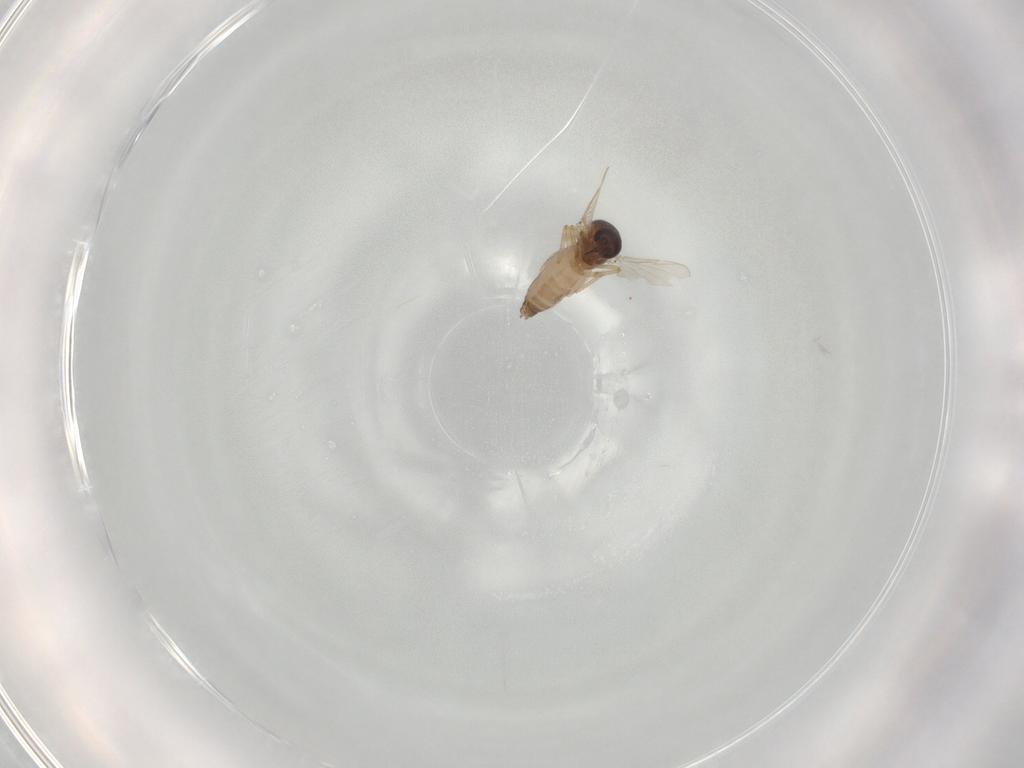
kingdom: Animalia
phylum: Arthropoda
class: Insecta
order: Diptera
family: Ceratopogonidae
